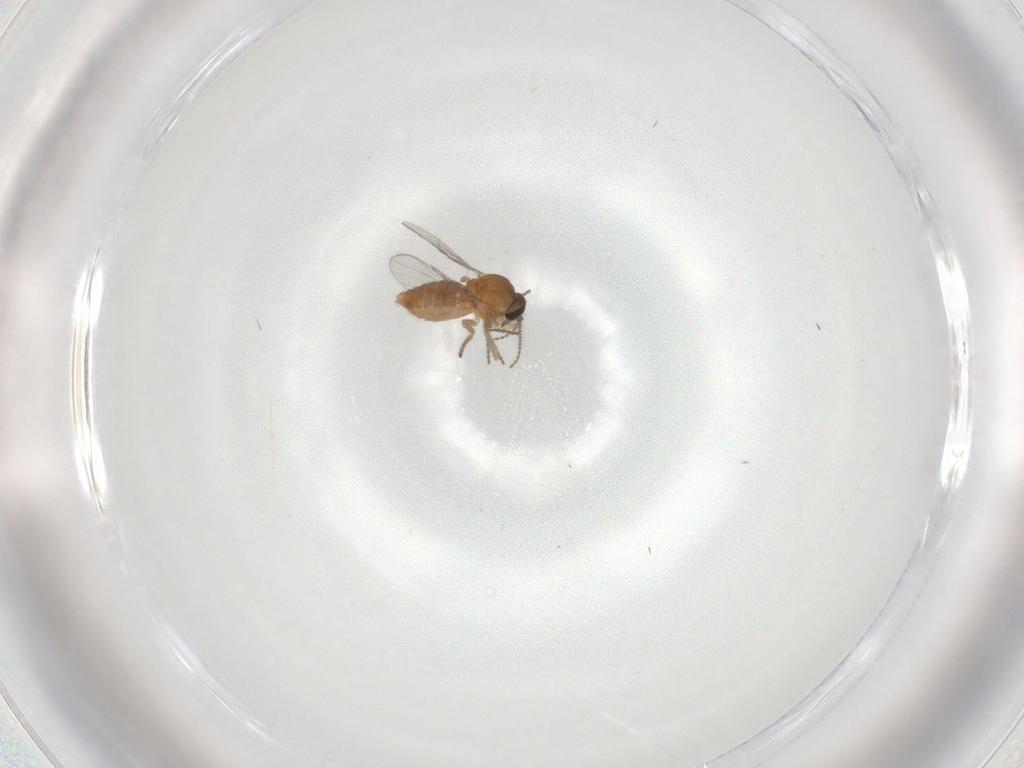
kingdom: Animalia
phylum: Arthropoda
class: Insecta
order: Diptera
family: Ceratopogonidae
